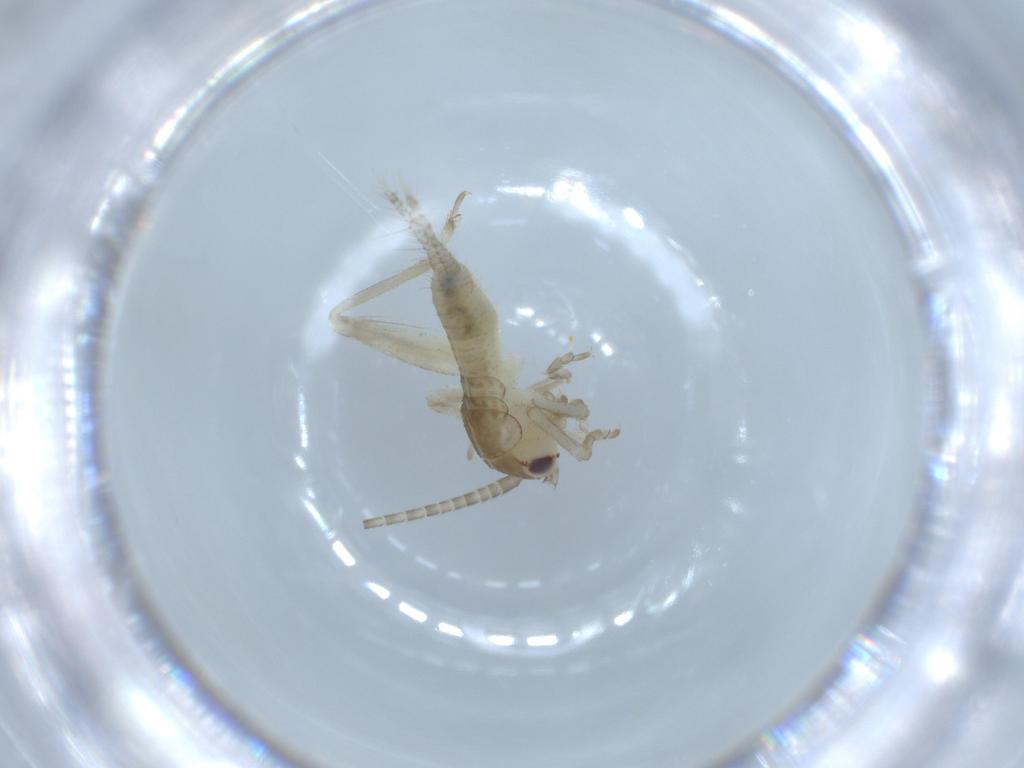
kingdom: Animalia
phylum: Arthropoda
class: Insecta
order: Orthoptera
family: Gryllidae
